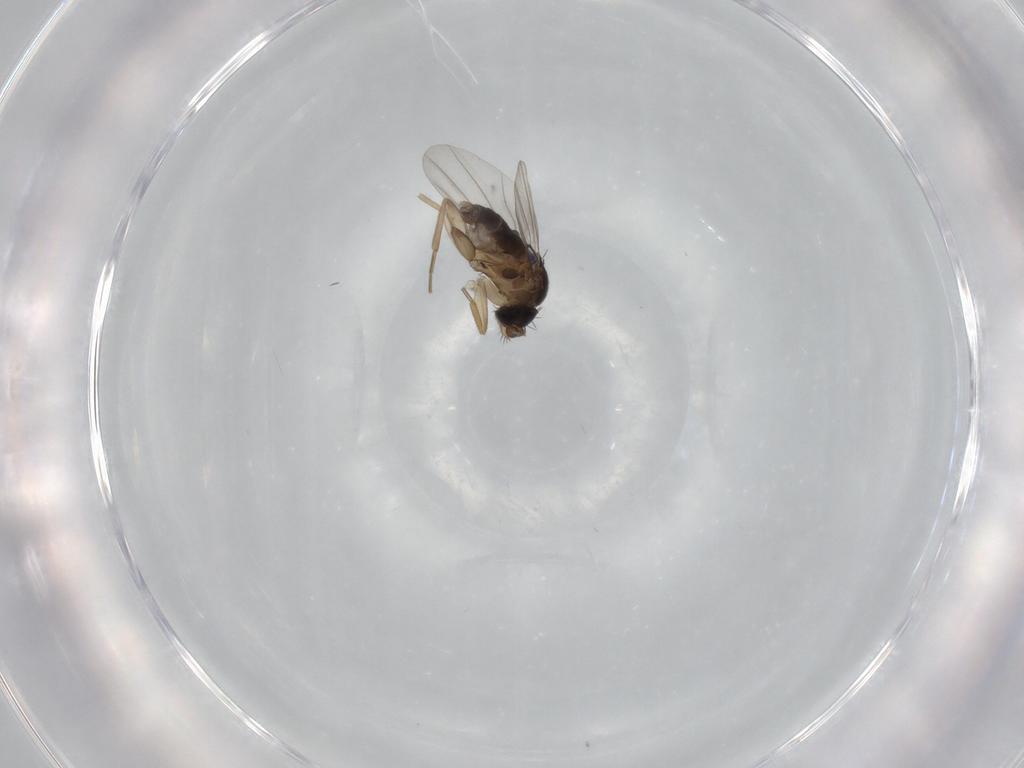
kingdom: Animalia
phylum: Arthropoda
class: Insecta
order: Diptera
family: Phoridae
